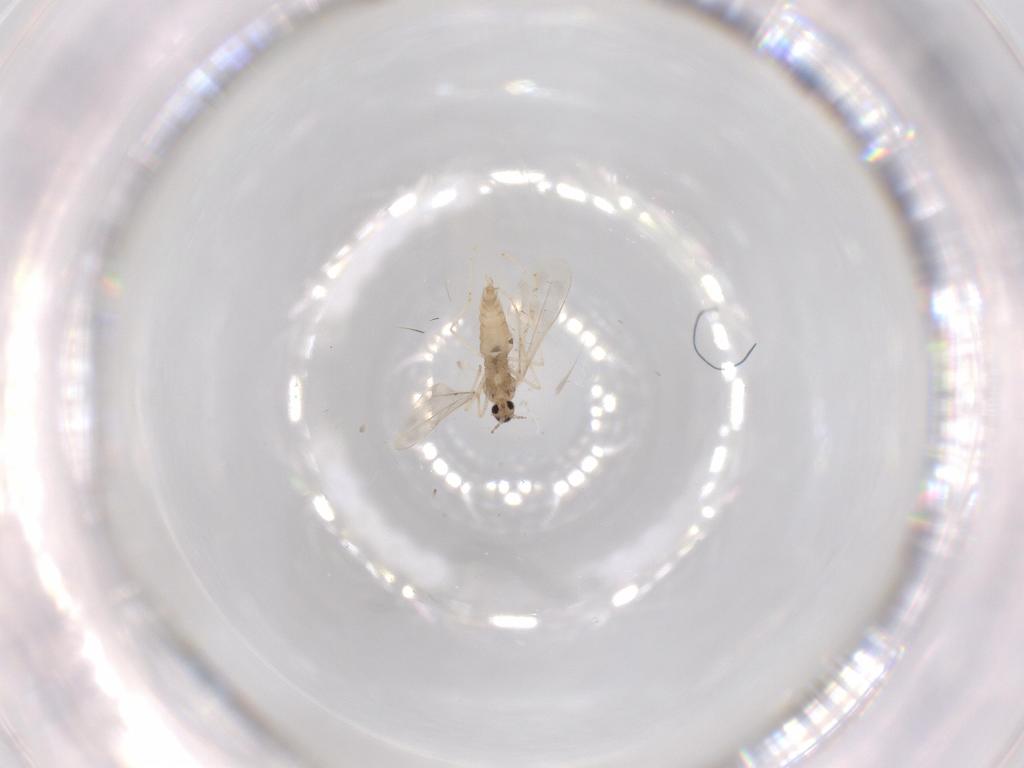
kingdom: Animalia
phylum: Arthropoda
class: Insecta
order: Diptera
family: Cecidomyiidae
